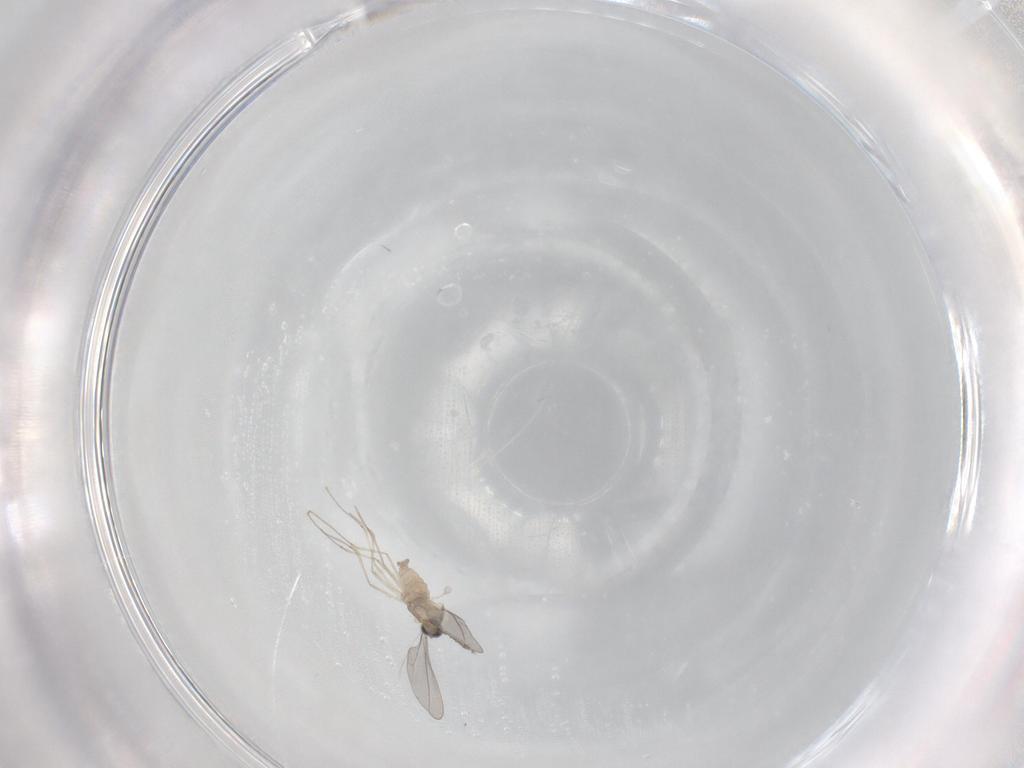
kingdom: Animalia
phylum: Arthropoda
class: Insecta
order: Diptera
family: Cecidomyiidae
